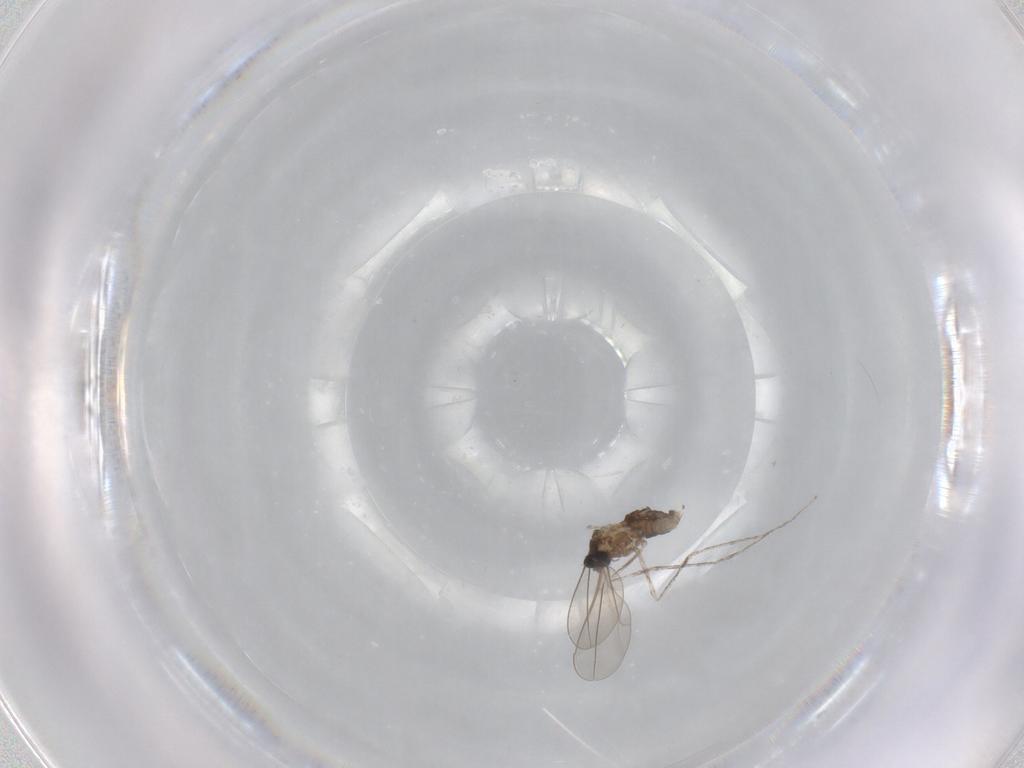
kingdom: Animalia
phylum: Arthropoda
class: Insecta
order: Diptera
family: Cecidomyiidae
